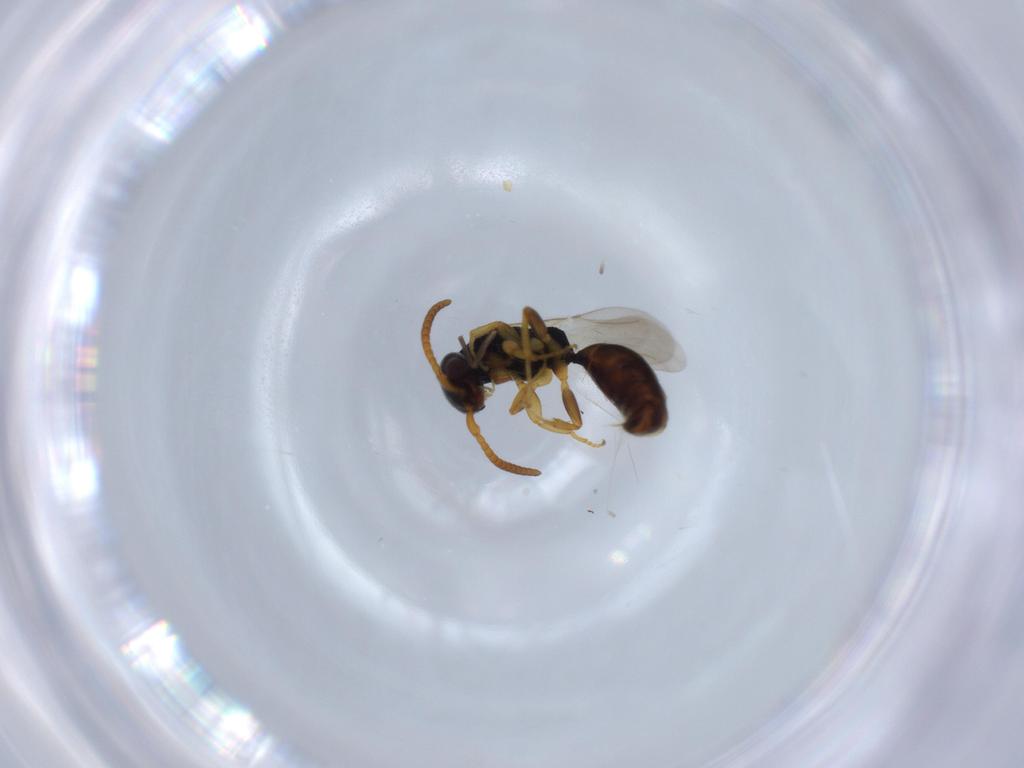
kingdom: Animalia
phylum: Arthropoda
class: Insecta
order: Hymenoptera
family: Bethylidae
